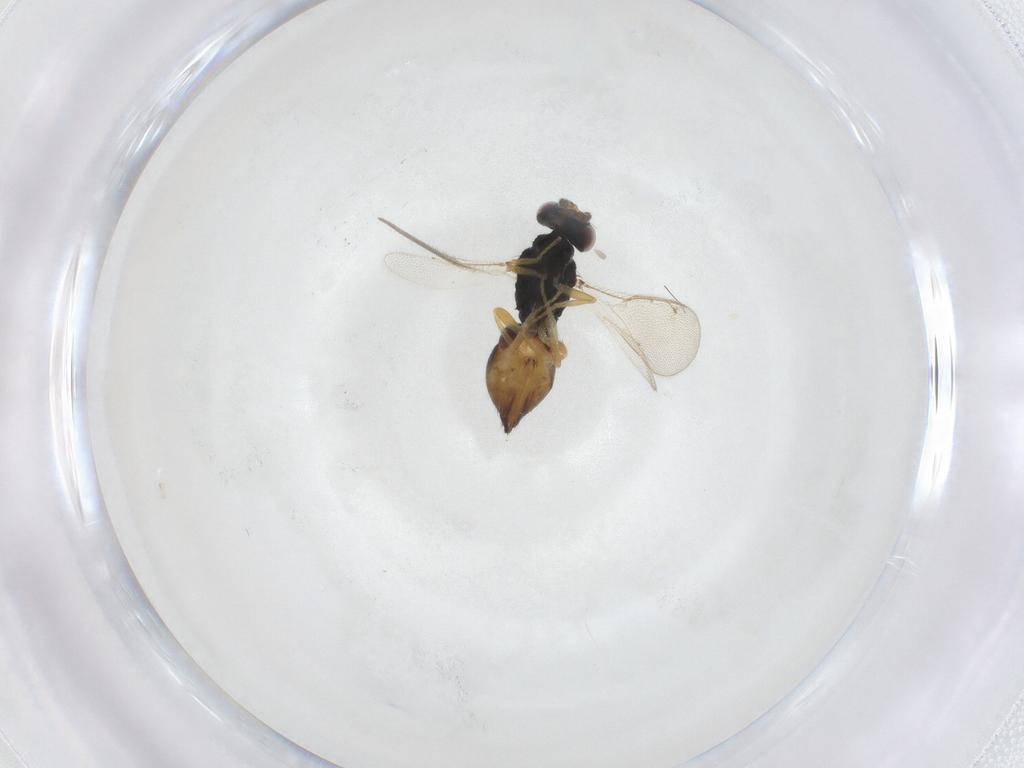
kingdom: Animalia
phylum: Arthropoda
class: Insecta
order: Hymenoptera
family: Eulophidae
